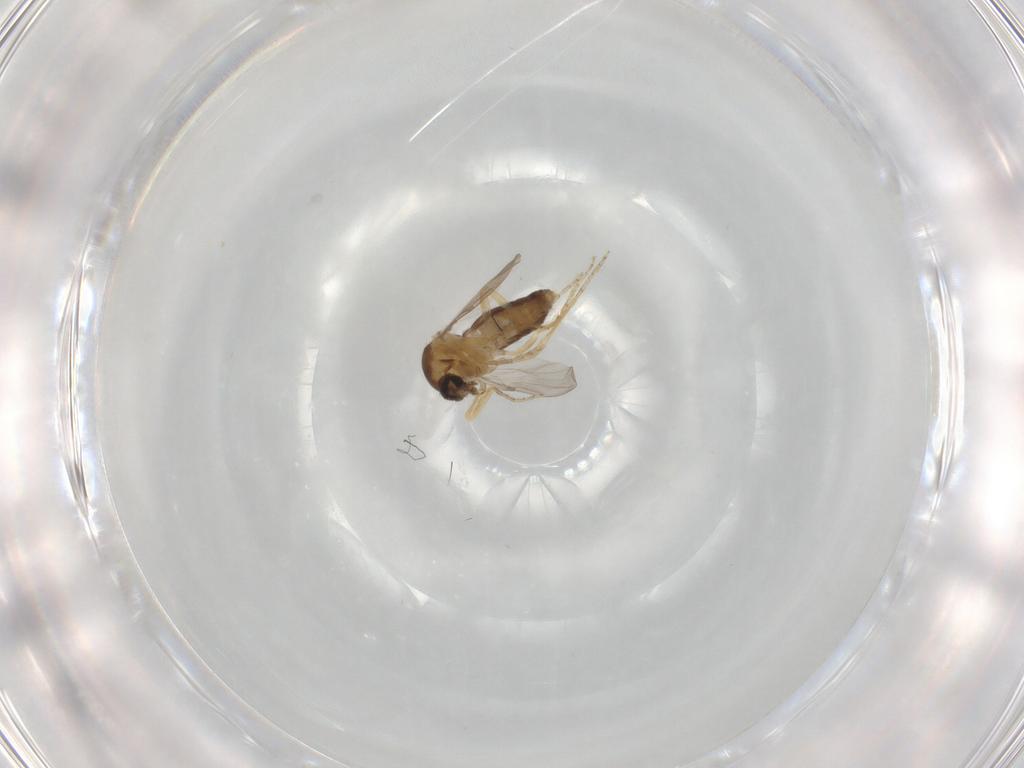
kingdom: Animalia
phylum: Arthropoda
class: Insecta
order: Diptera
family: Ceratopogonidae
